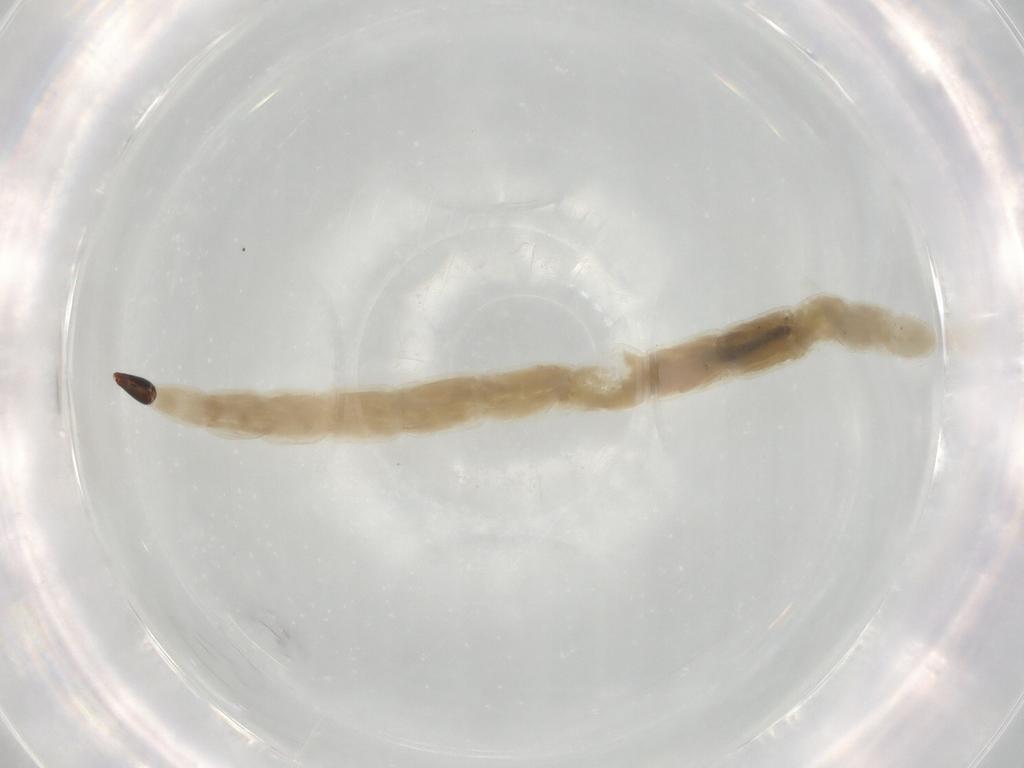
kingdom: Animalia
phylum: Arthropoda
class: Insecta
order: Diptera
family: Ceratopogonidae
